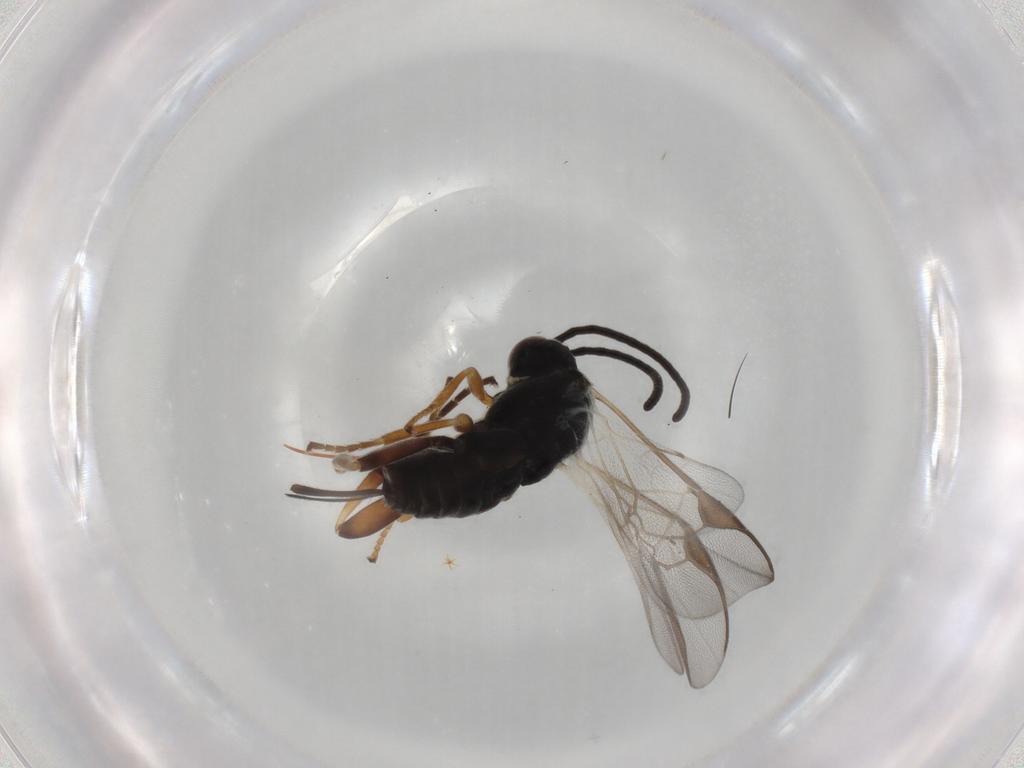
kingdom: Animalia
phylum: Arthropoda
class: Insecta
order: Hymenoptera
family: Braconidae
